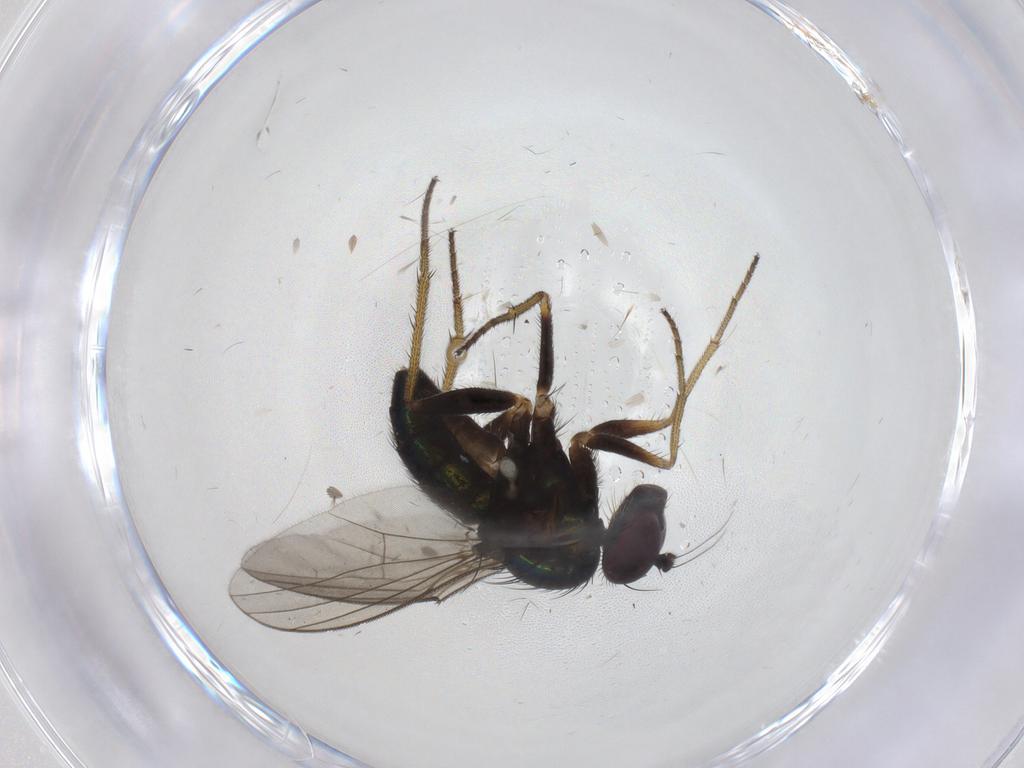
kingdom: Animalia
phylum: Arthropoda
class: Insecta
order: Diptera
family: Dolichopodidae
